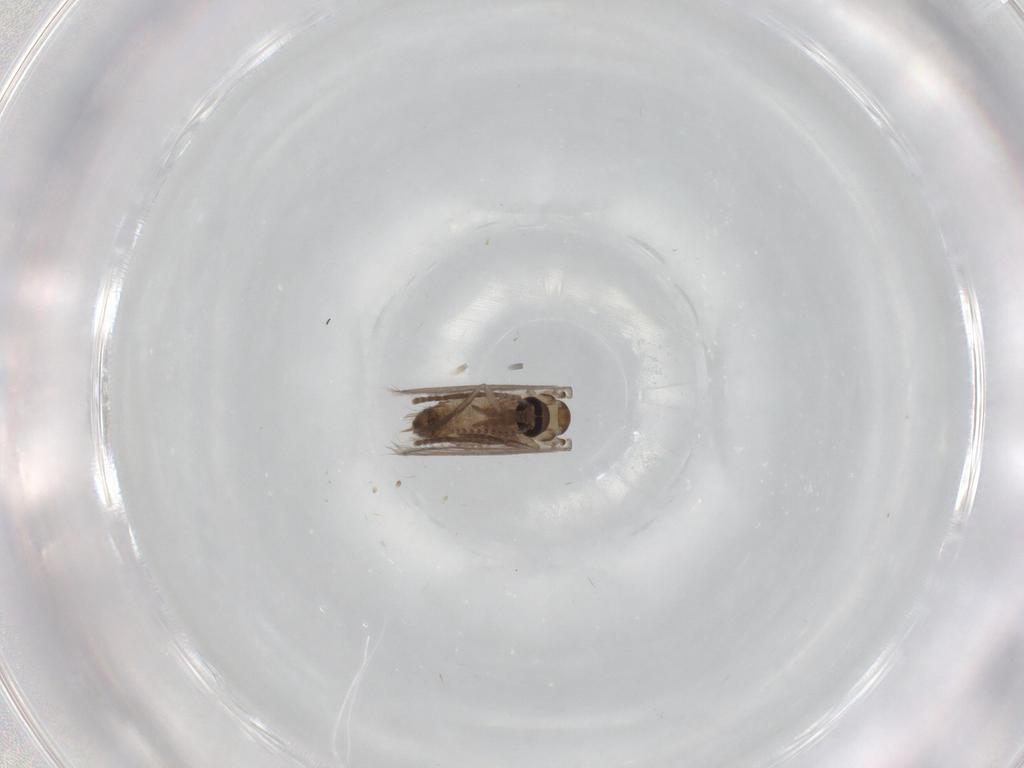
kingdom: Animalia
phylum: Arthropoda
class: Insecta
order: Diptera
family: Psychodidae
